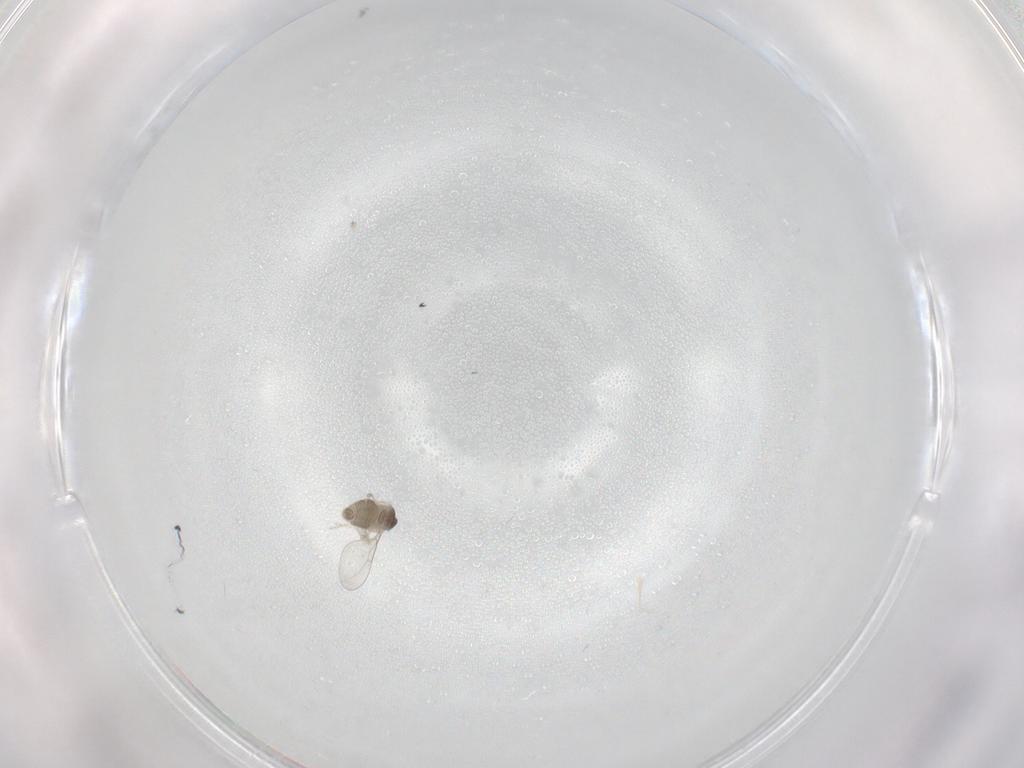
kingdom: Animalia
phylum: Arthropoda
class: Insecta
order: Diptera
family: Cecidomyiidae
